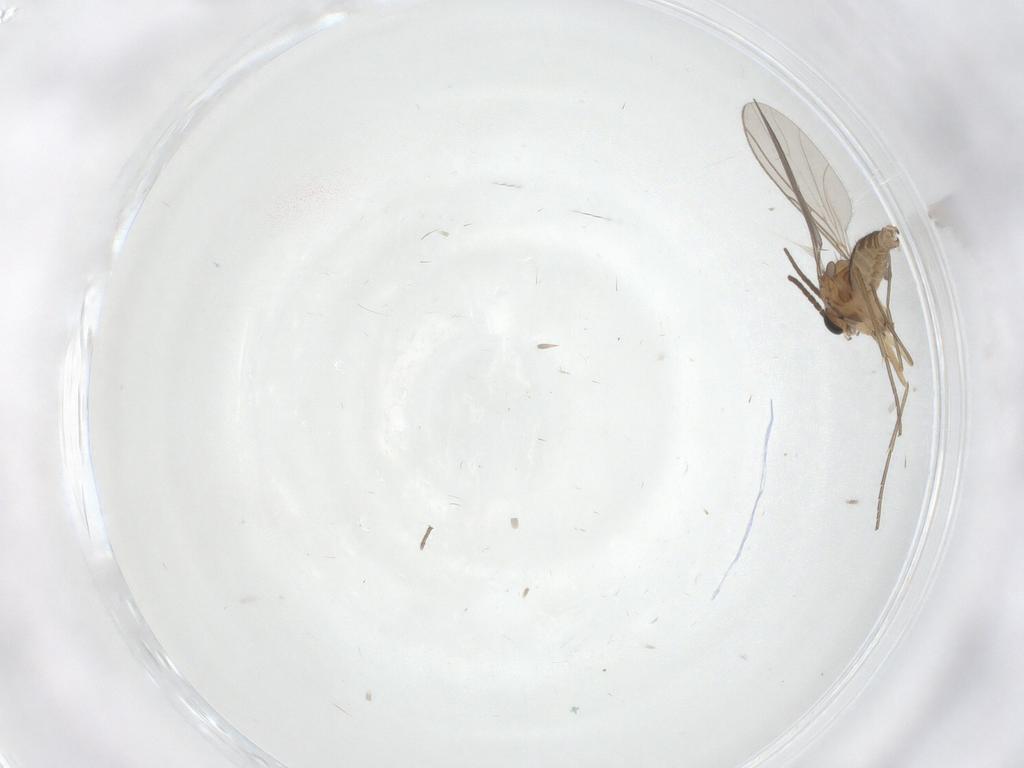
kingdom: Animalia
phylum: Arthropoda
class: Insecta
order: Diptera
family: Sciaridae
